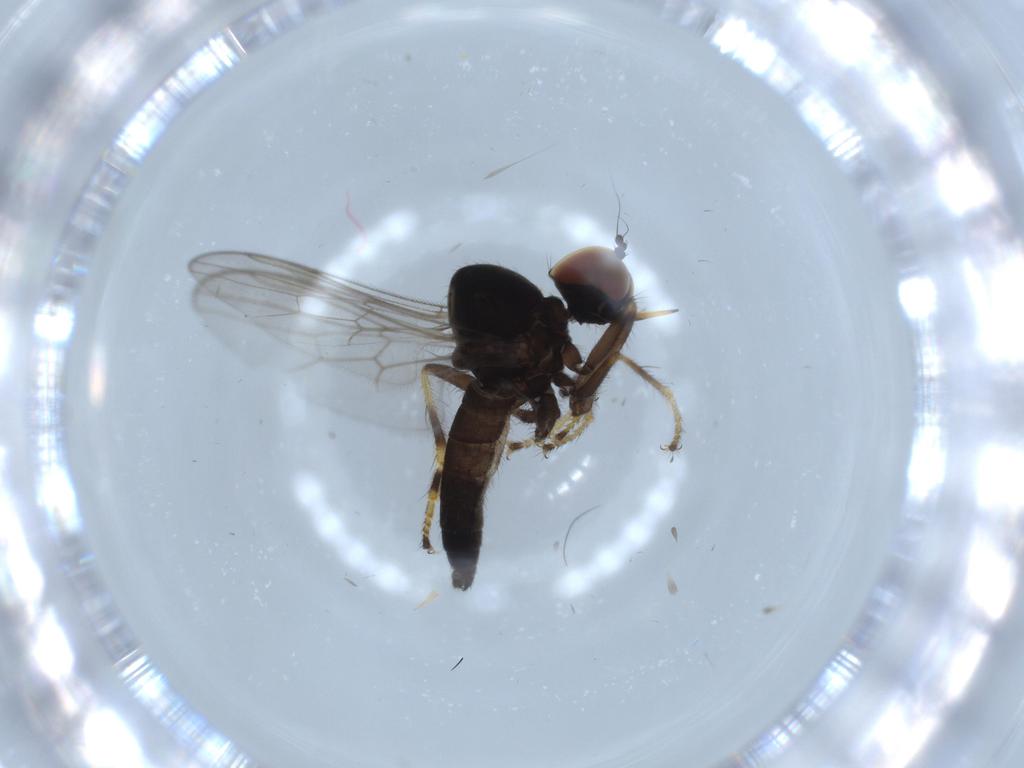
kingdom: Animalia
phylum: Arthropoda
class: Insecta
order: Diptera
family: Hybotidae
